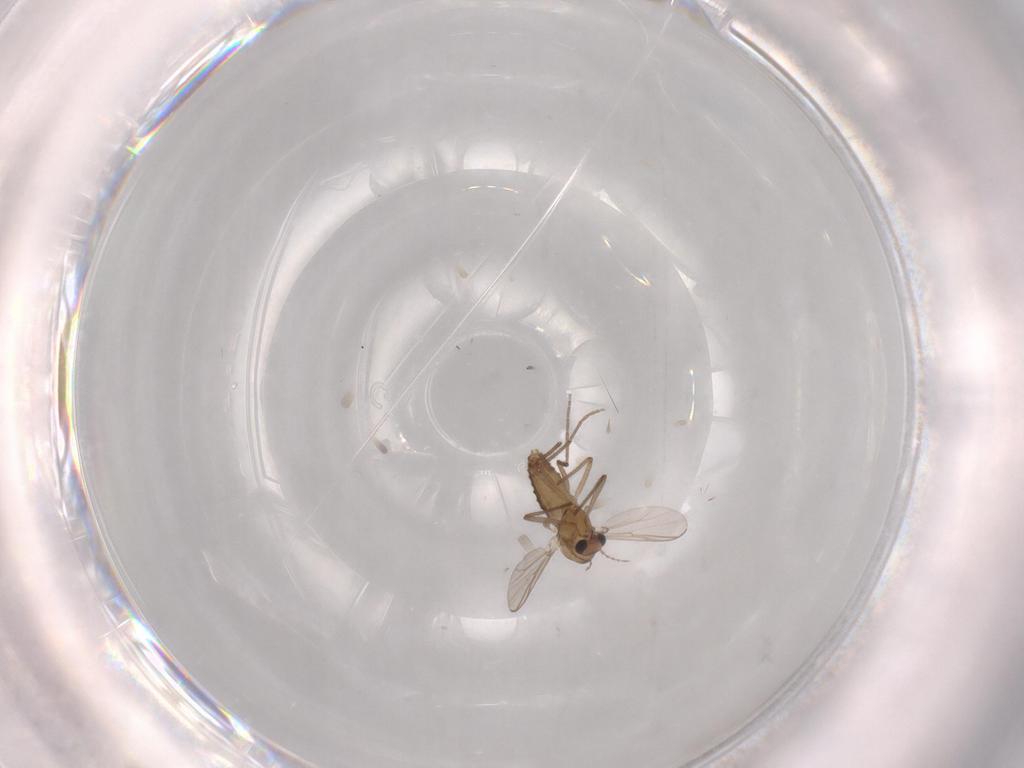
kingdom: Animalia
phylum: Arthropoda
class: Insecta
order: Diptera
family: Chironomidae
